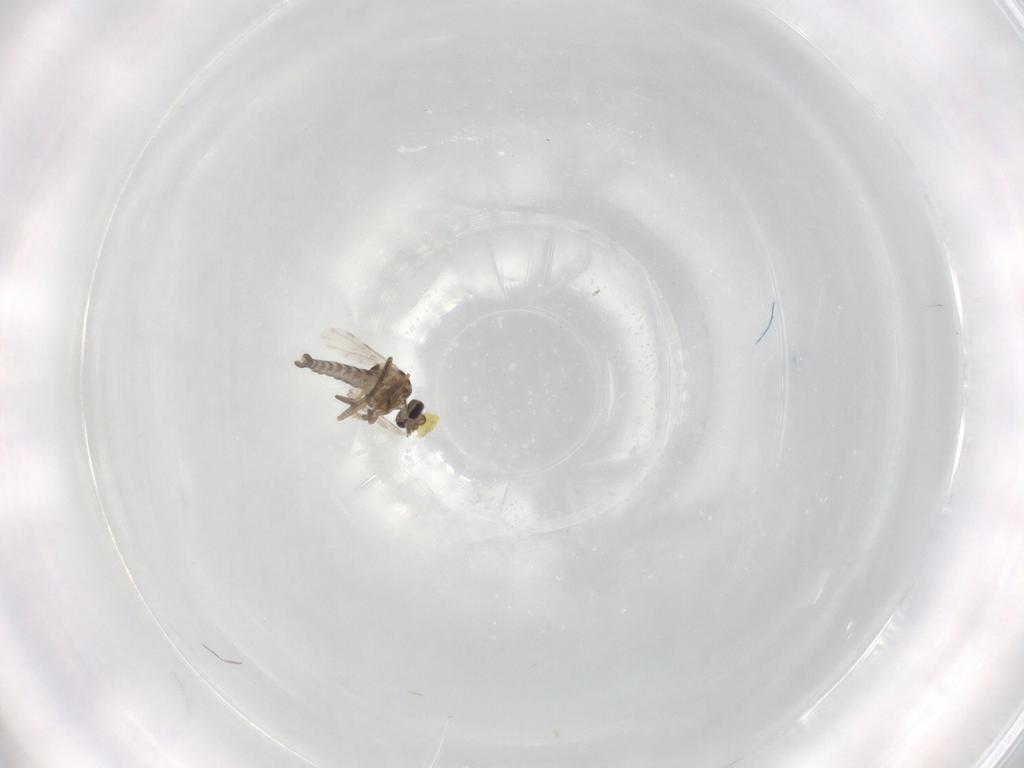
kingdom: Animalia
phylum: Arthropoda
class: Insecta
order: Diptera
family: Ceratopogonidae
